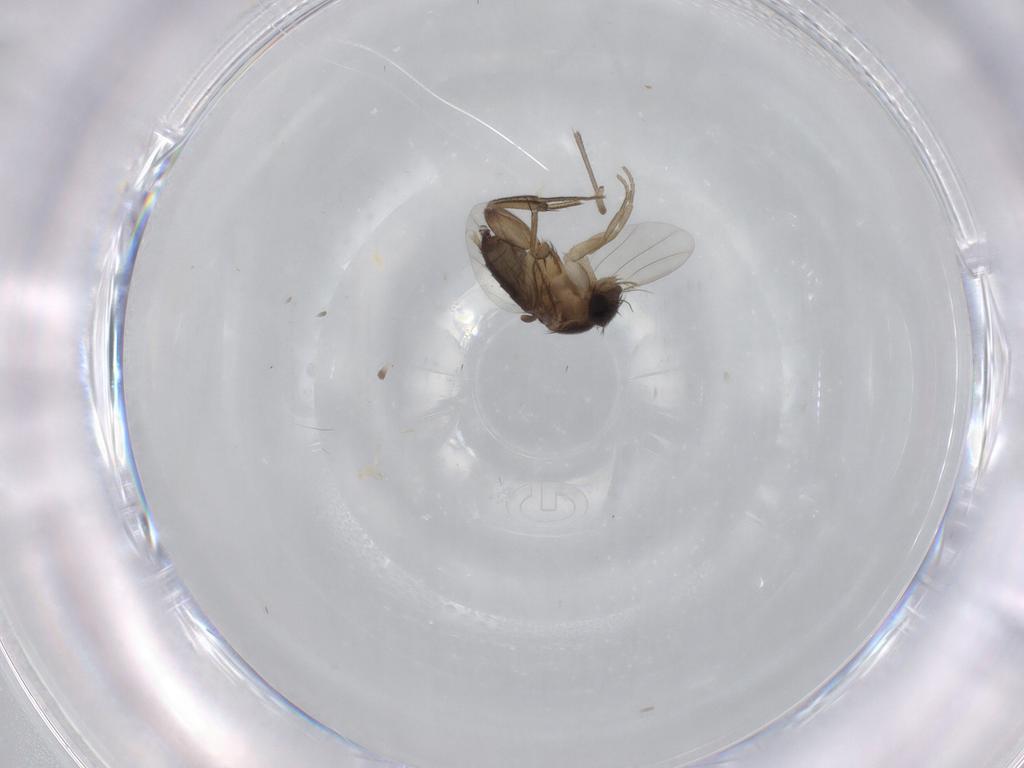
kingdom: Animalia
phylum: Arthropoda
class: Insecta
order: Diptera
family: Phoridae
